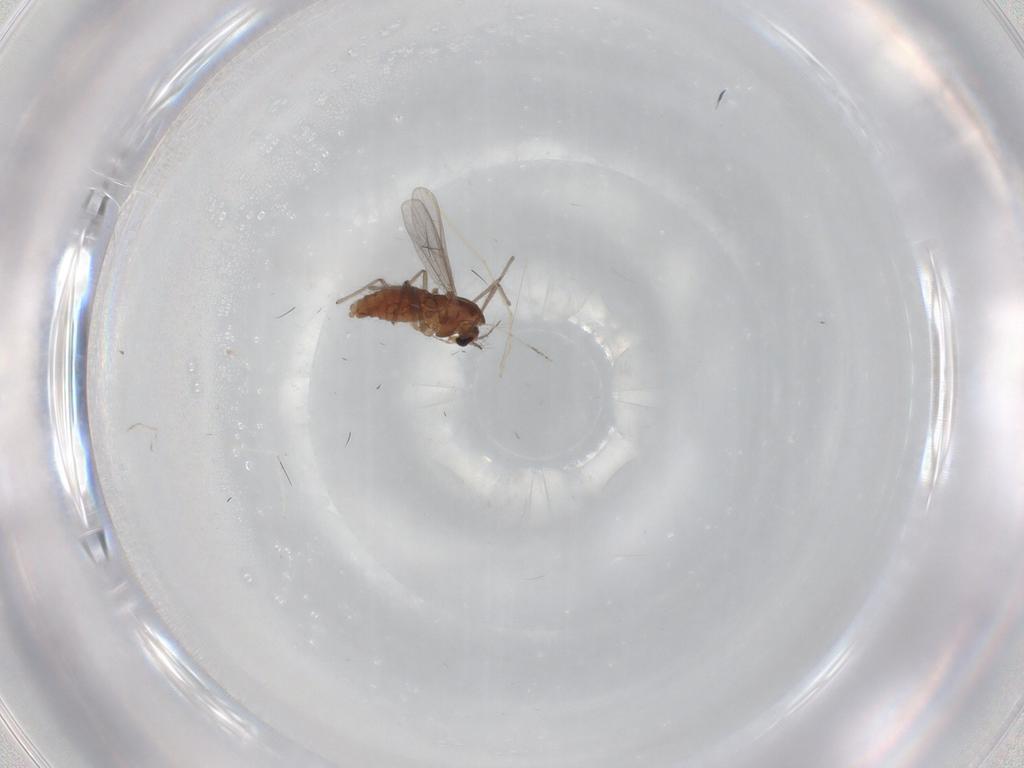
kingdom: Animalia
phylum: Arthropoda
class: Insecta
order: Diptera
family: Chironomidae
